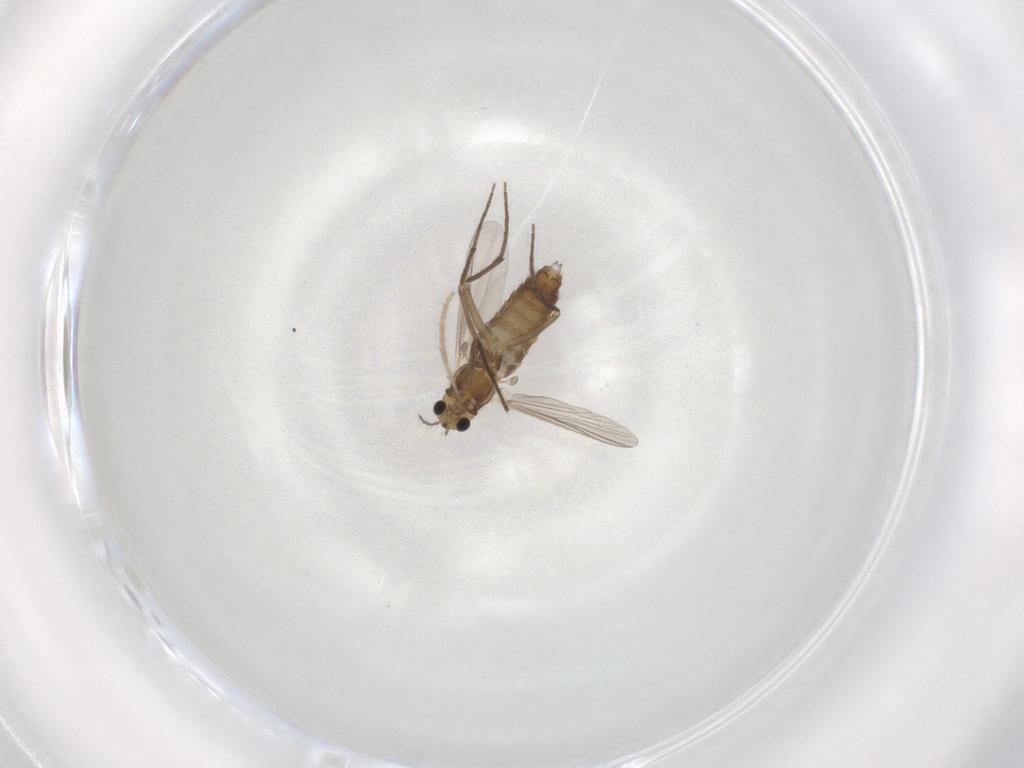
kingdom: Animalia
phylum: Arthropoda
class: Insecta
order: Diptera
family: Chironomidae
